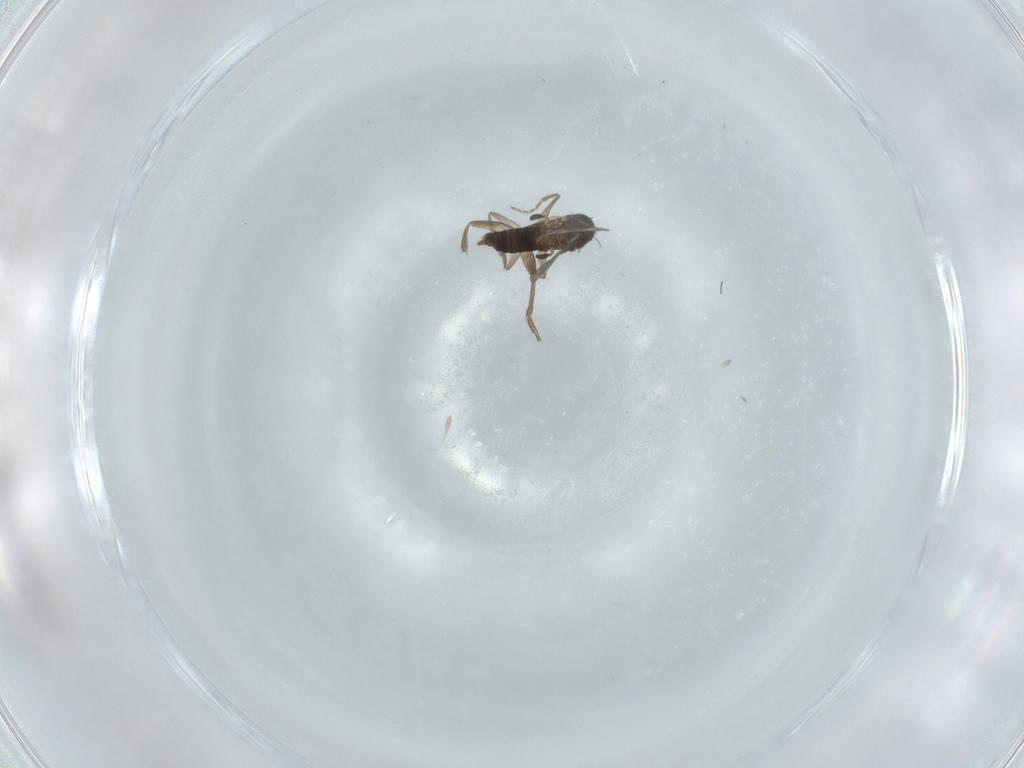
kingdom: Animalia
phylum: Arthropoda
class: Insecta
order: Diptera
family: Phoridae
